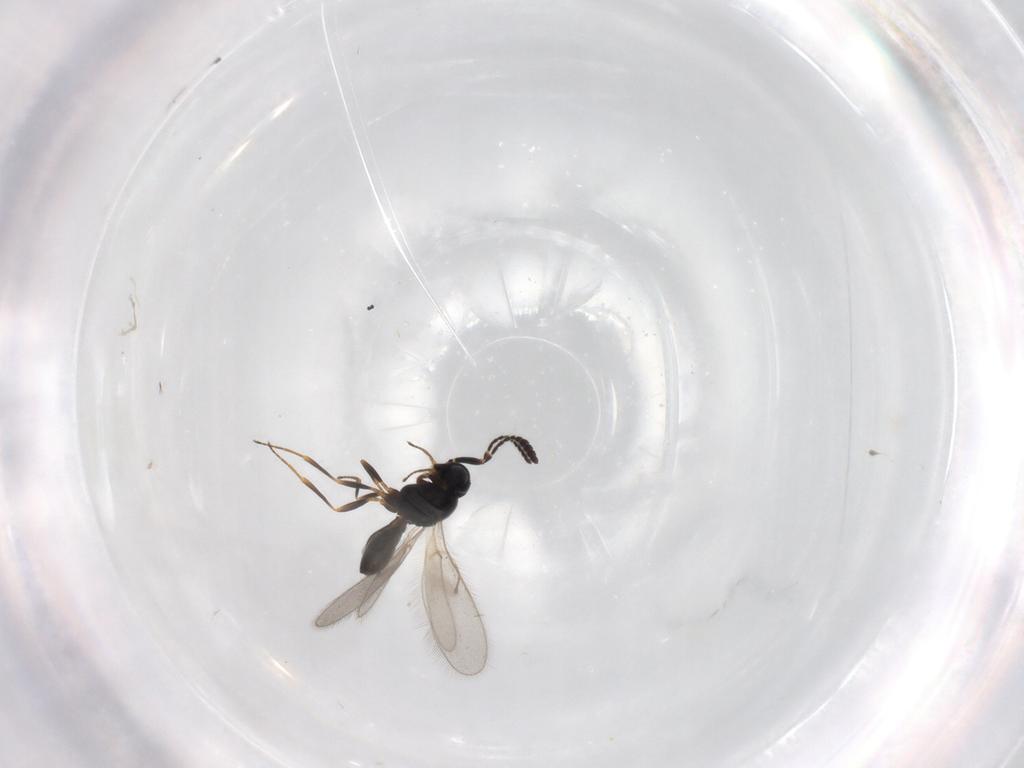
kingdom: Animalia
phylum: Arthropoda
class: Insecta
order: Hymenoptera
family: Scelionidae
